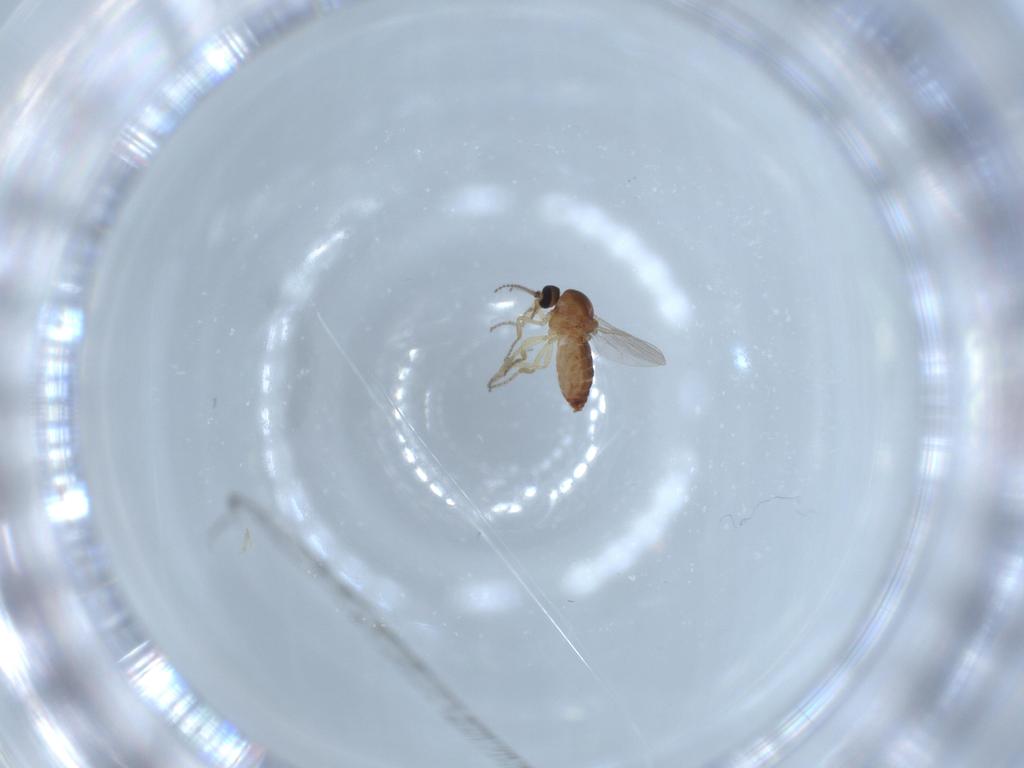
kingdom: Animalia
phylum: Arthropoda
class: Insecta
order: Diptera
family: Ceratopogonidae
